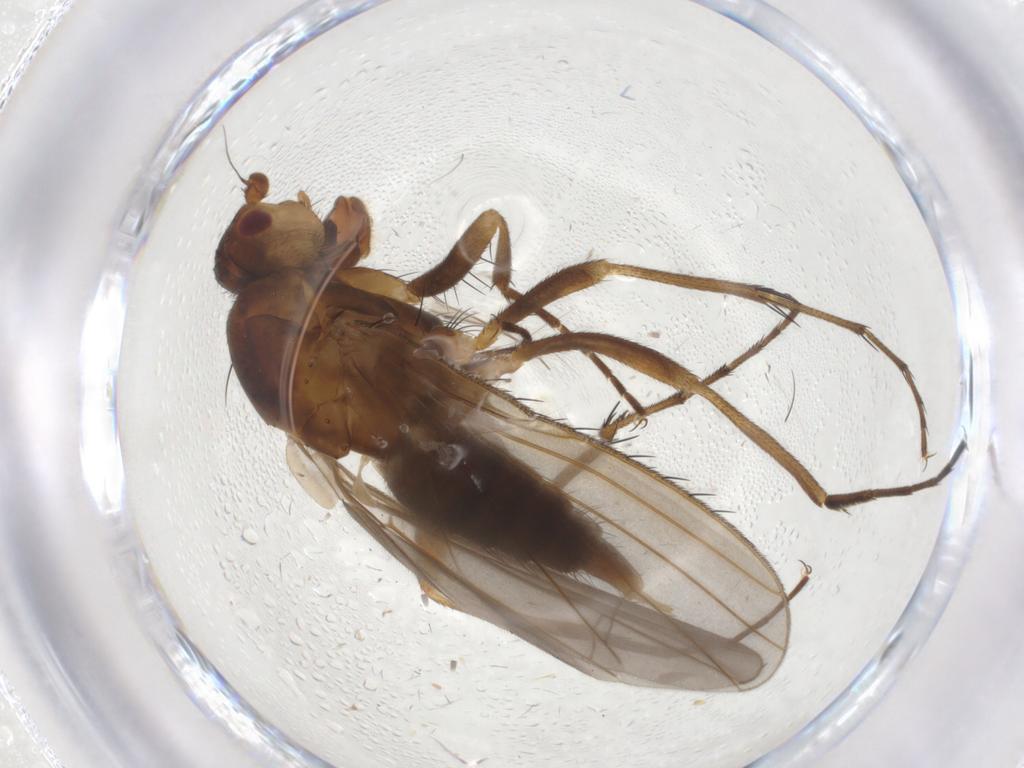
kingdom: Animalia
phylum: Arthropoda
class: Insecta
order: Diptera
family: Heleomyzidae
